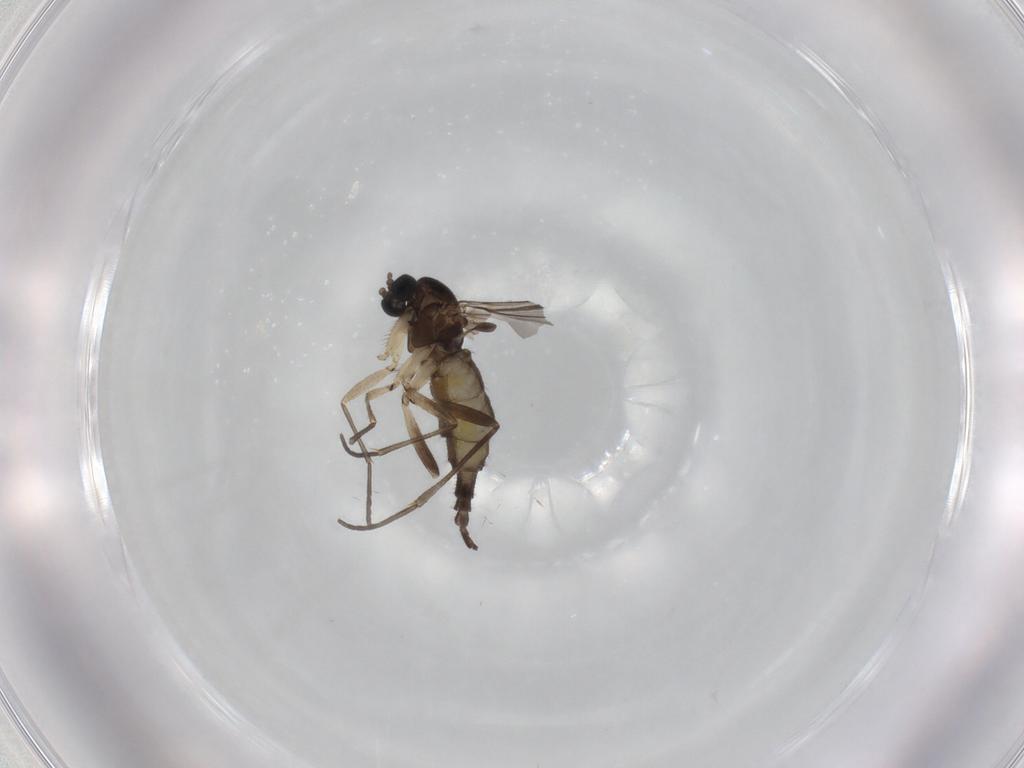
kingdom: Animalia
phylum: Arthropoda
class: Insecta
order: Diptera
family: Sciaridae
